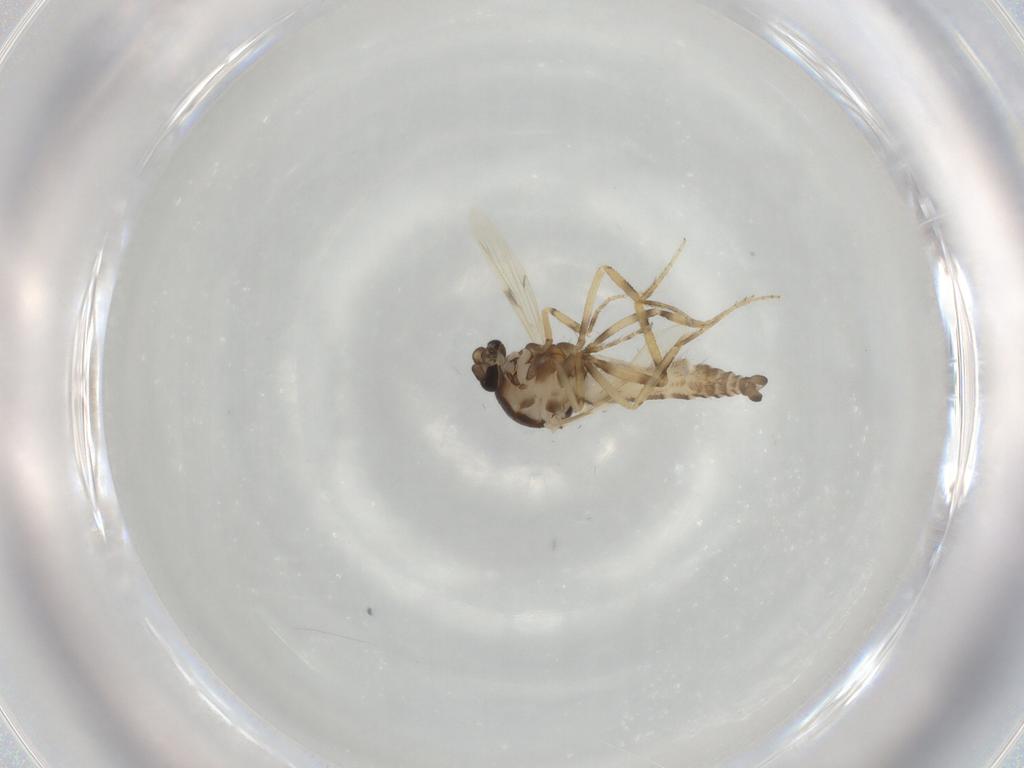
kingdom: Animalia
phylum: Arthropoda
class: Insecta
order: Diptera
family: Ceratopogonidae
